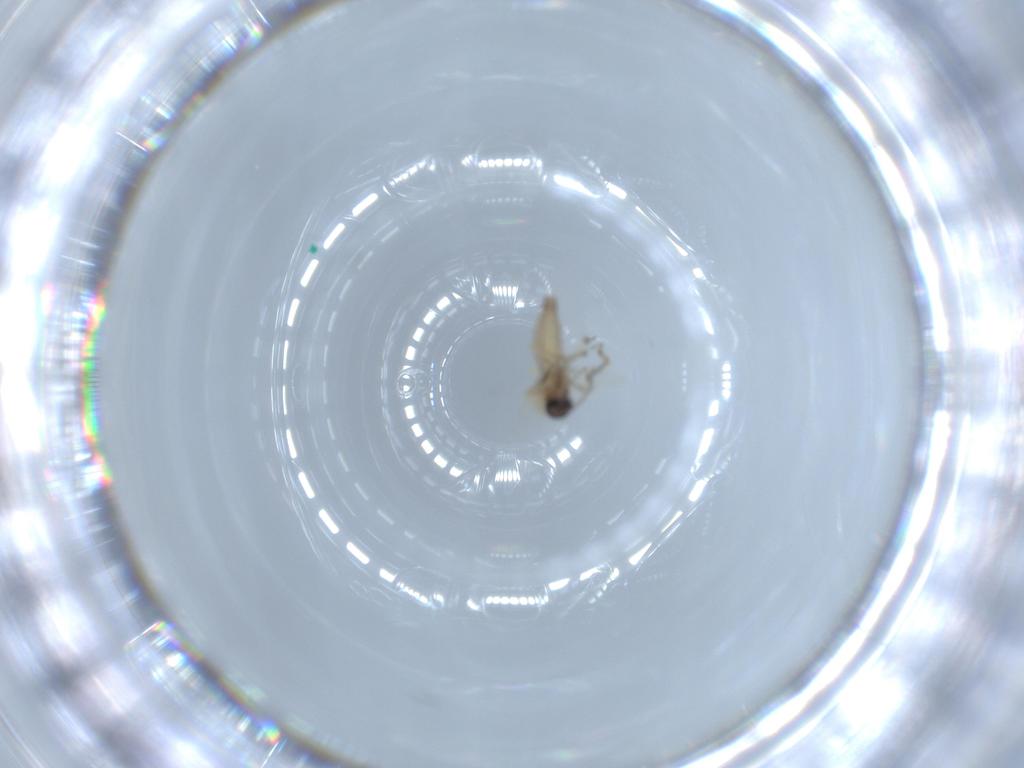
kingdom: Animalia
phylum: Arthropoda
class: Insecta
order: Diptera
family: Ceratopogonidae
